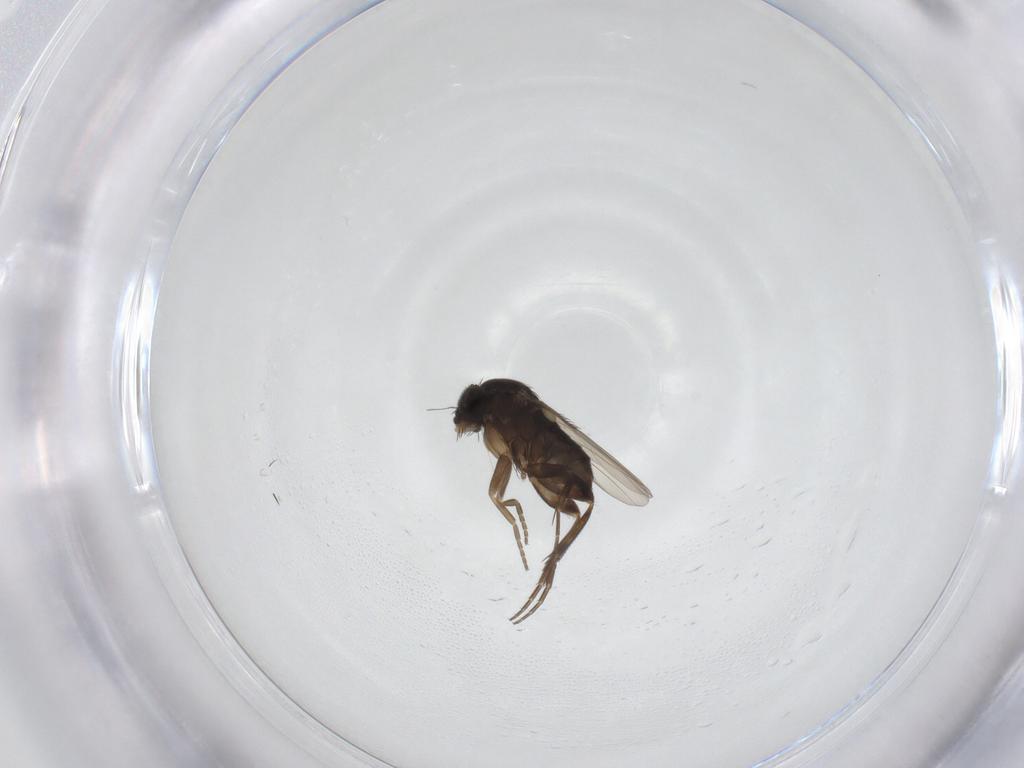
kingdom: Animalia
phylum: Arthropoda
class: Insecta
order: Diptera
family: Phoridae
